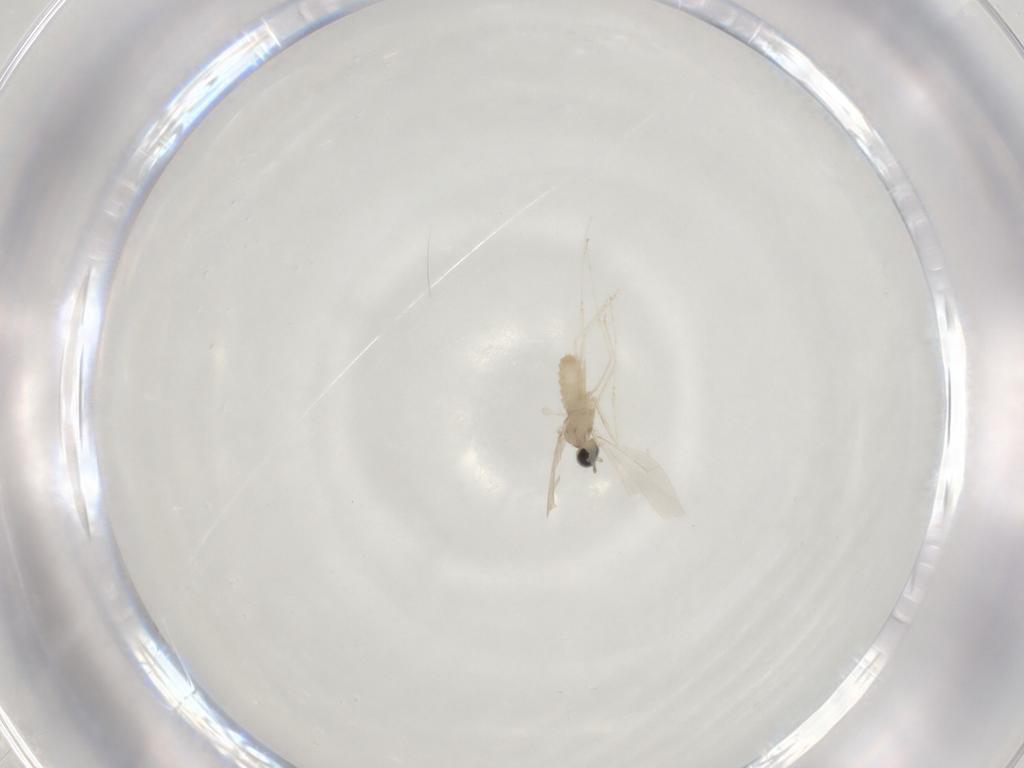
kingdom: Animalia
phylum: Arthropoda
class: Insecta
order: Diptera
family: Cecidomyiidae
